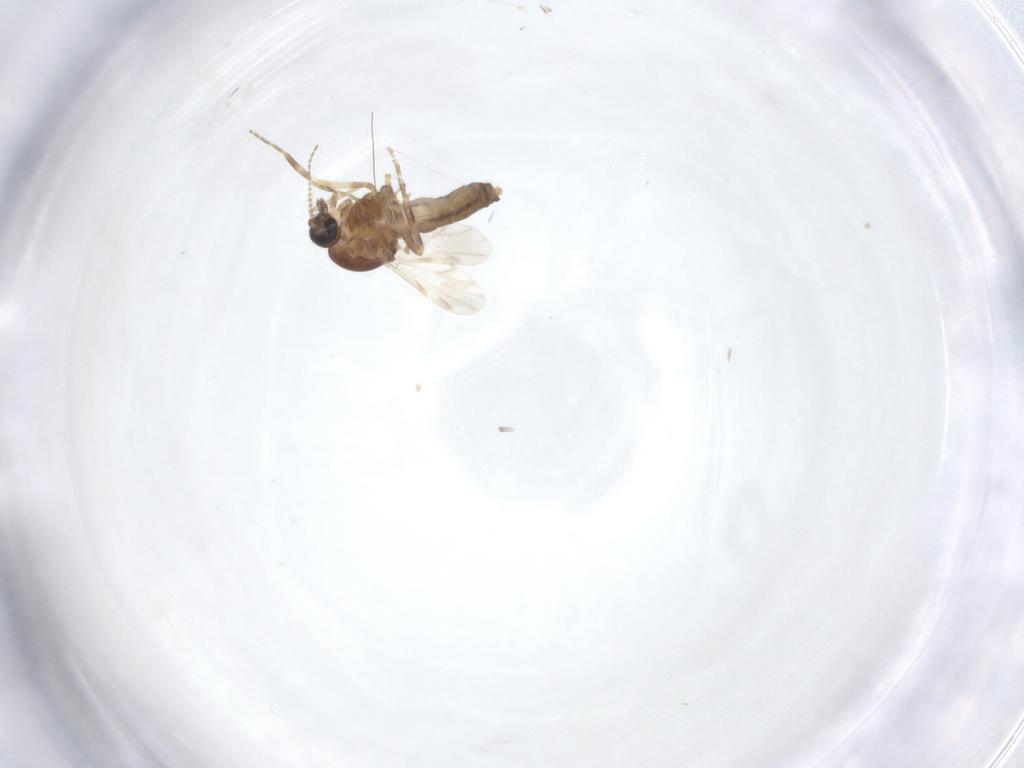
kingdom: Animalia
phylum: Arthropoda
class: Insecta
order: Diptera
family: Ceratopogonidae
